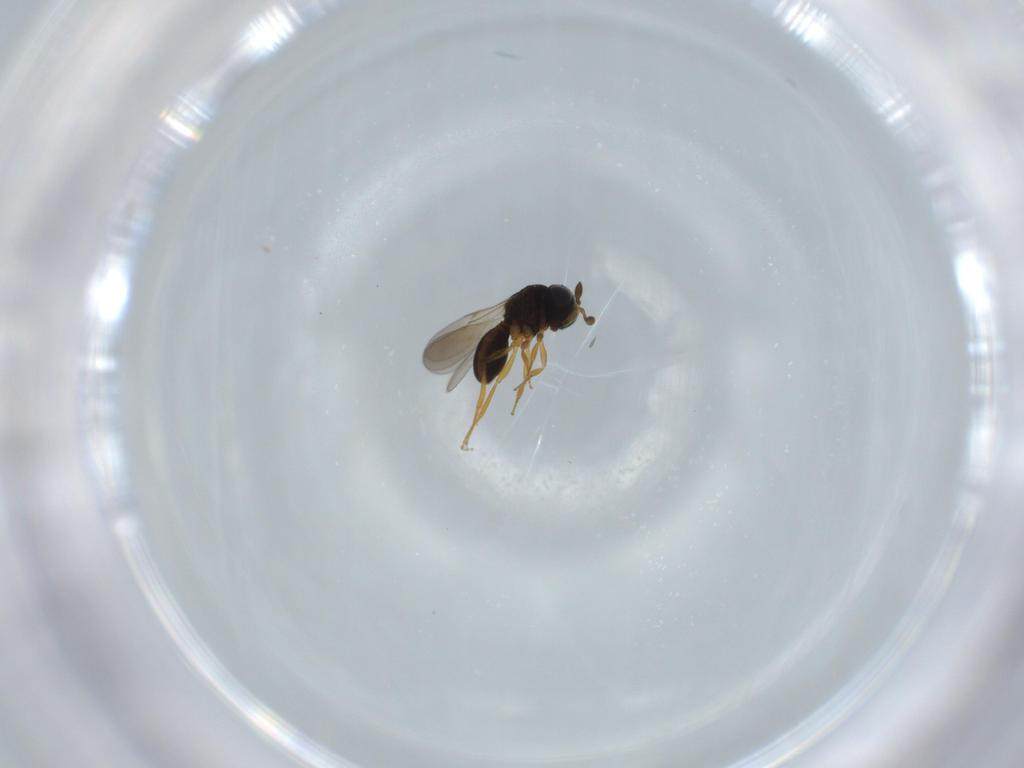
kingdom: Animalia
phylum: Arthropoda
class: Insecta
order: Hymenoptera
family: Scelionidae
